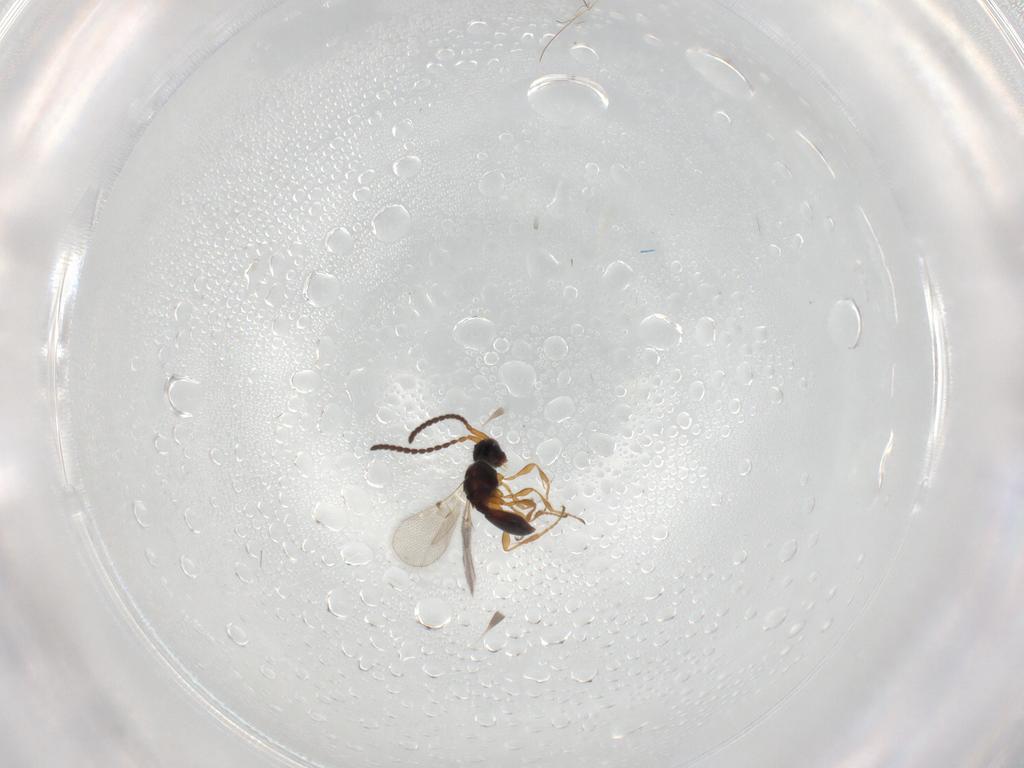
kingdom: Animalia
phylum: Arthropoda
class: Insecta
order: Hymenoptera
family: Diapriidae
